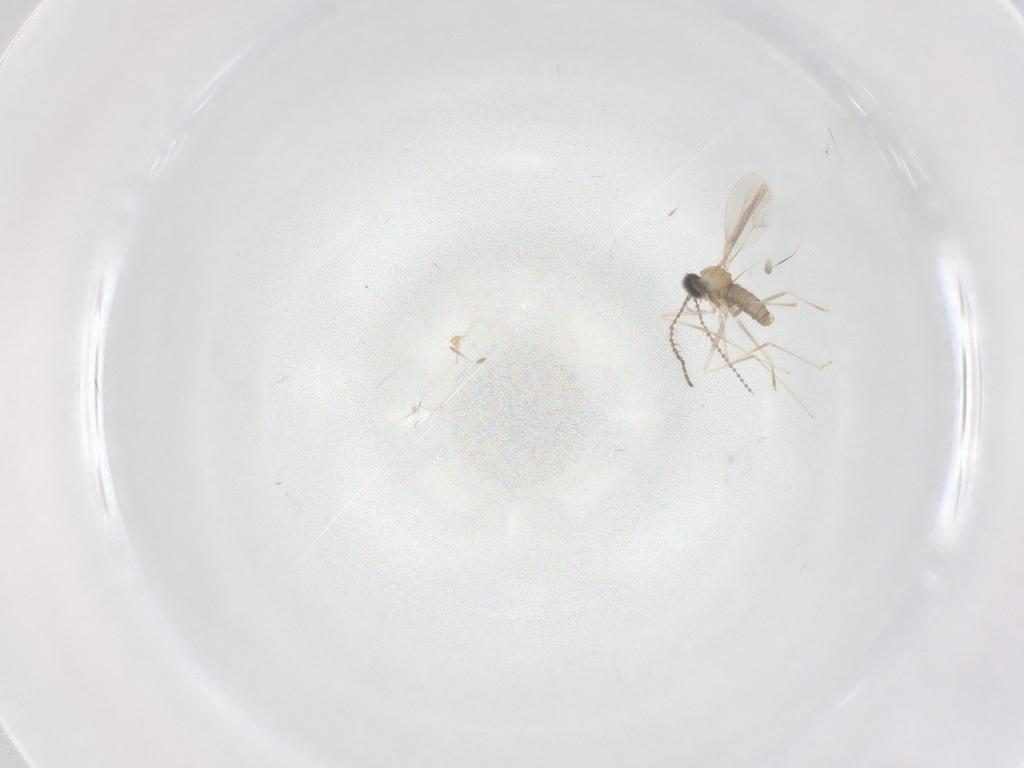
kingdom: Animalia
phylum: Arthropoda
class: Insecta
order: Diptera
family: Cecidomyiidae
